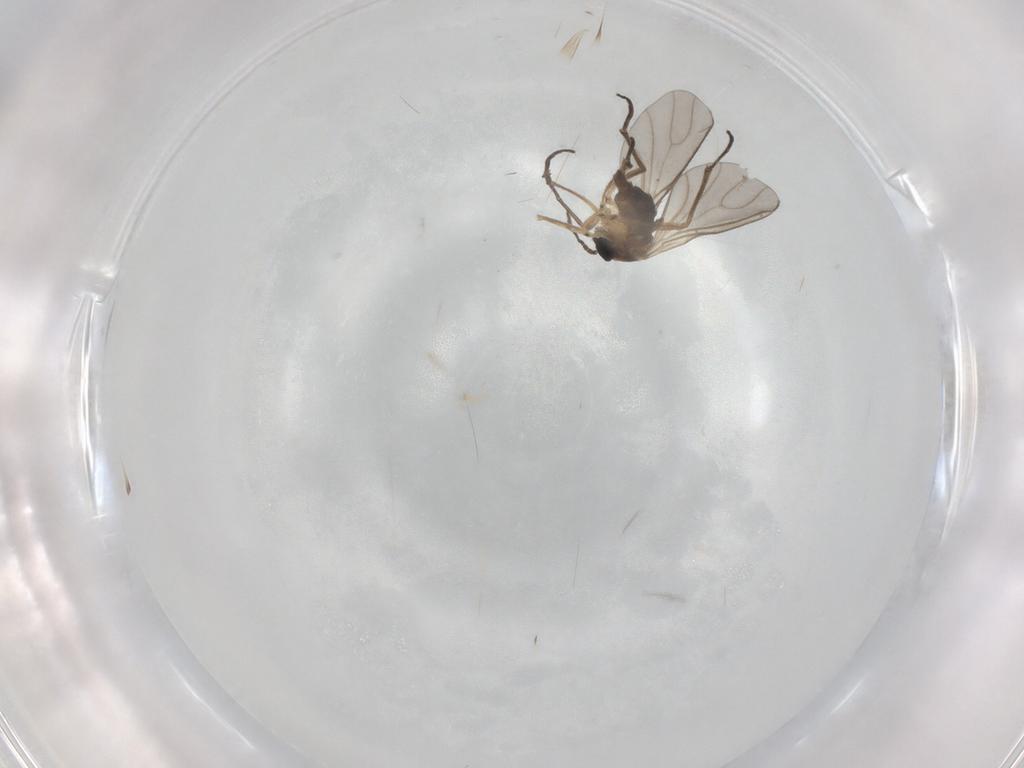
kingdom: Animalia
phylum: Arthropoda
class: Insecta
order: Diptera
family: Sciaridae
